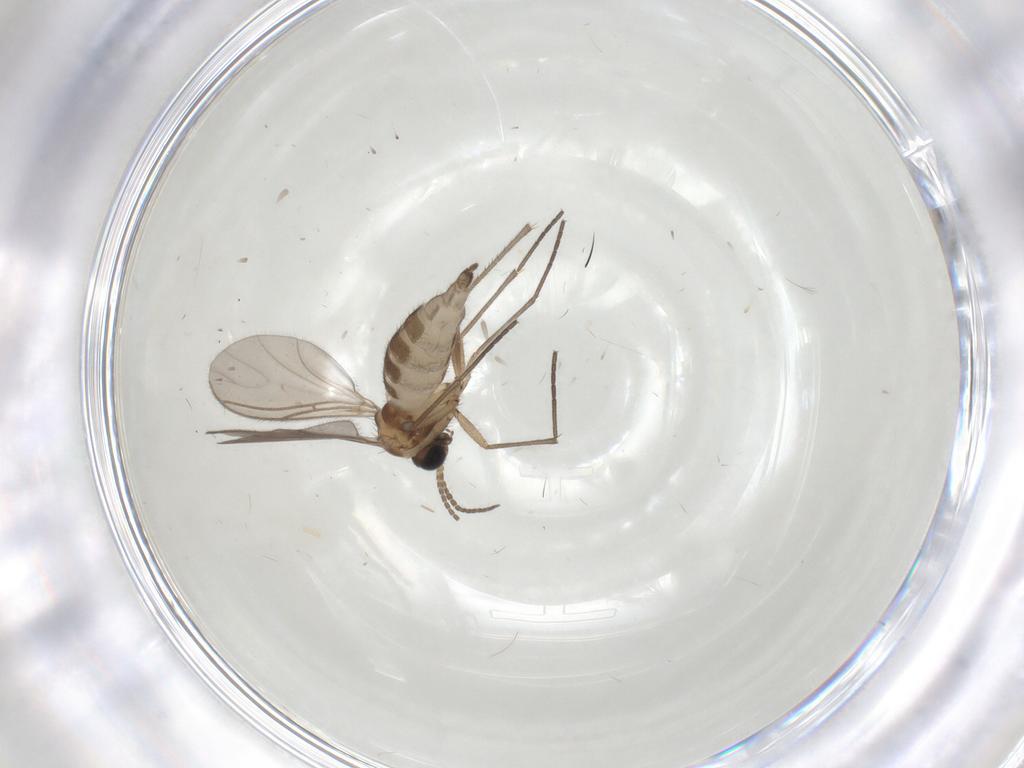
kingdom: Animalia
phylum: Arthropoda
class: Insecta
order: Diptera
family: Sciaridae
